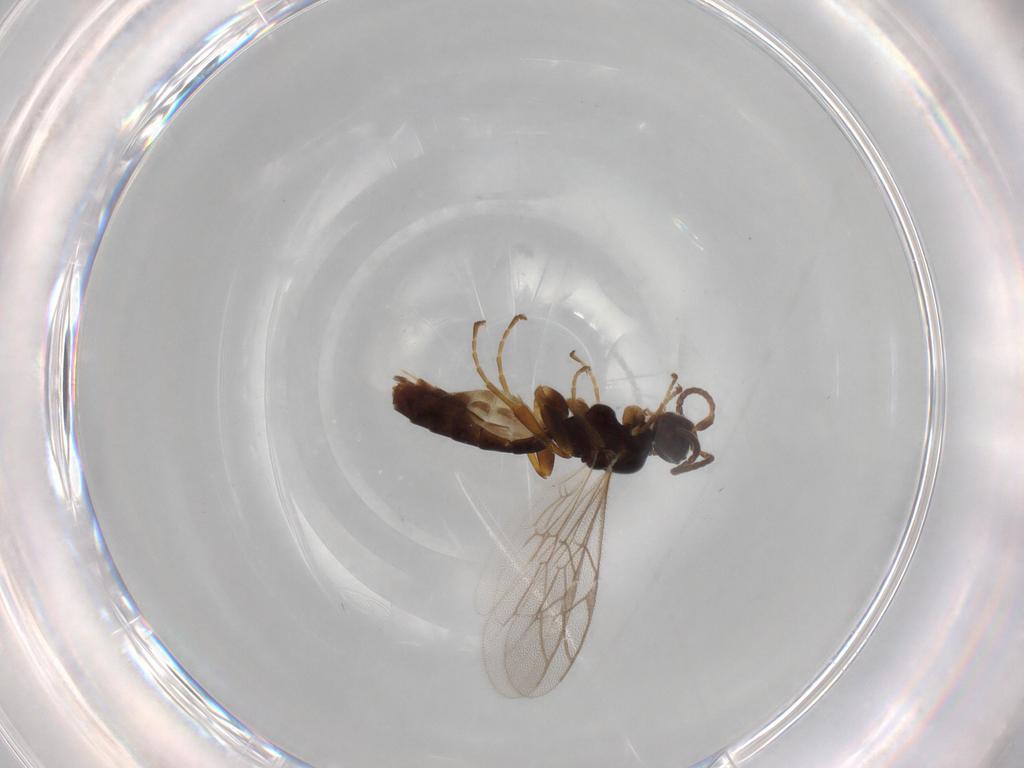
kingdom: Animalia
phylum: Arthropoda
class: Insecta
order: Hymenoptera
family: Ichneumonidae
